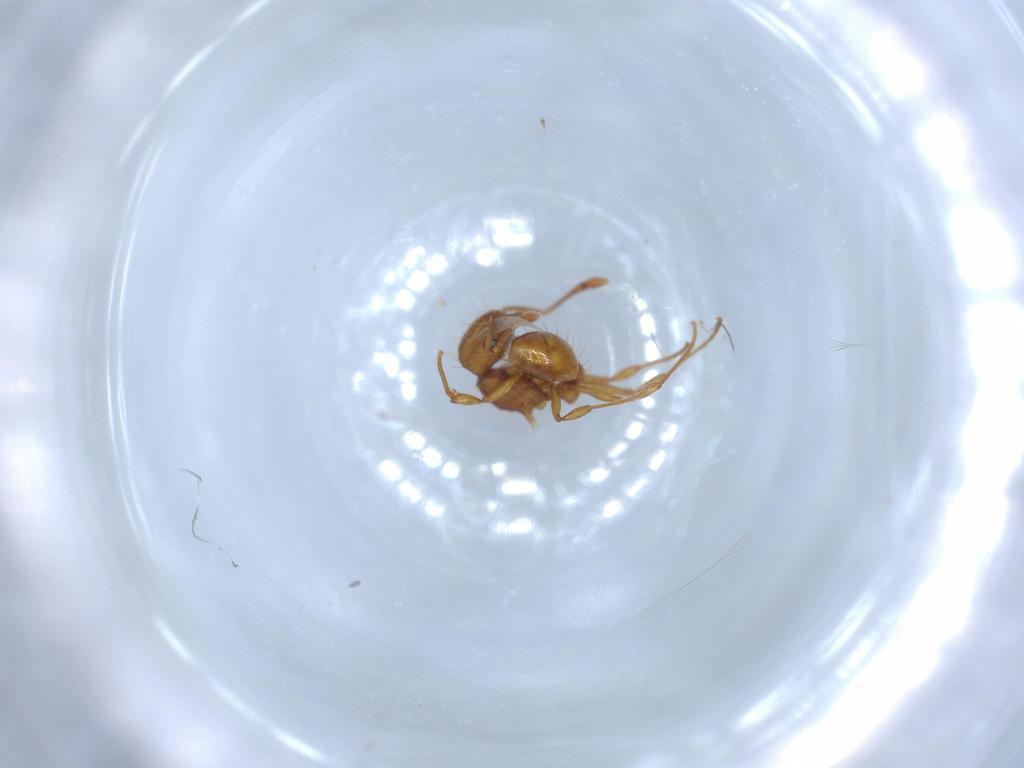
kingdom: Animalia
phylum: Arthropoda
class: Insecta
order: Hymenoptera
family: Formicidae
